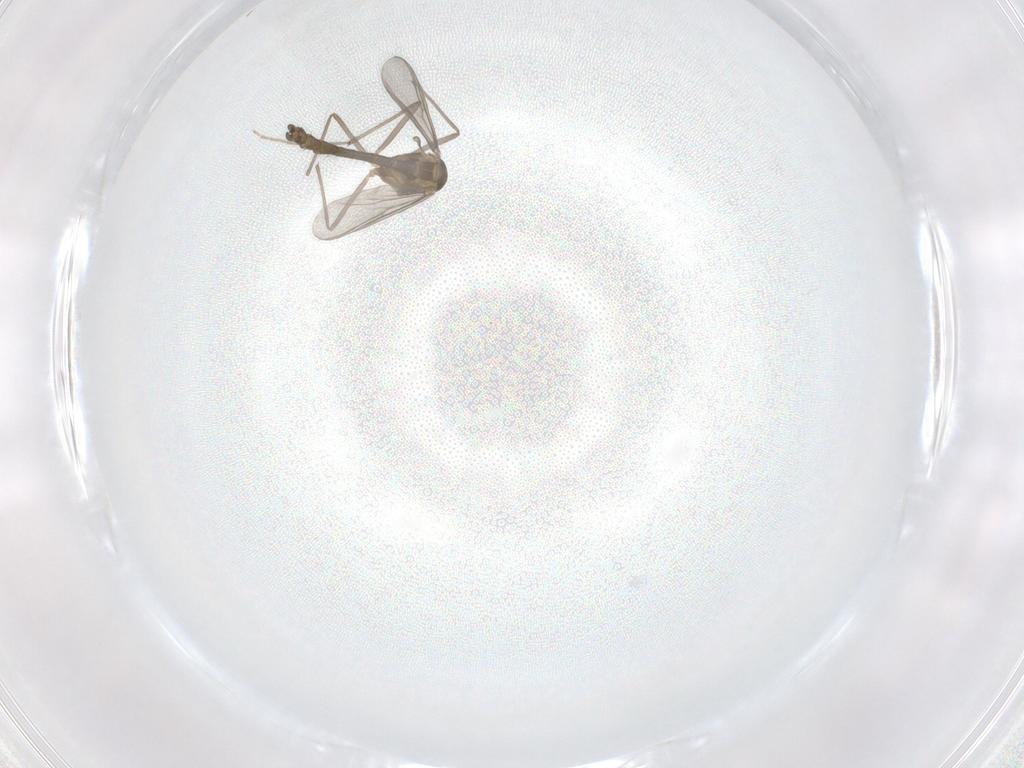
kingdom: Animalia
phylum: Arthropoda
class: Insecta
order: Diptera
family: Chironomidae
